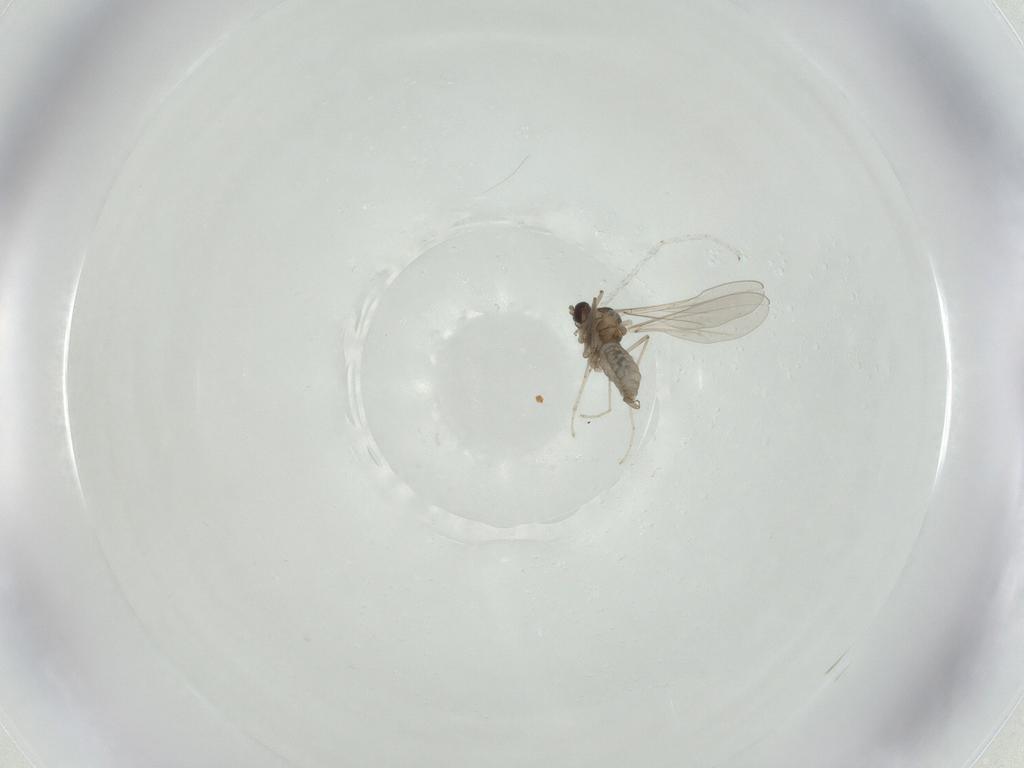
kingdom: Animalia
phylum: Arthropoda
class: Insecta
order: Diptera
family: Cecidomyiidae
